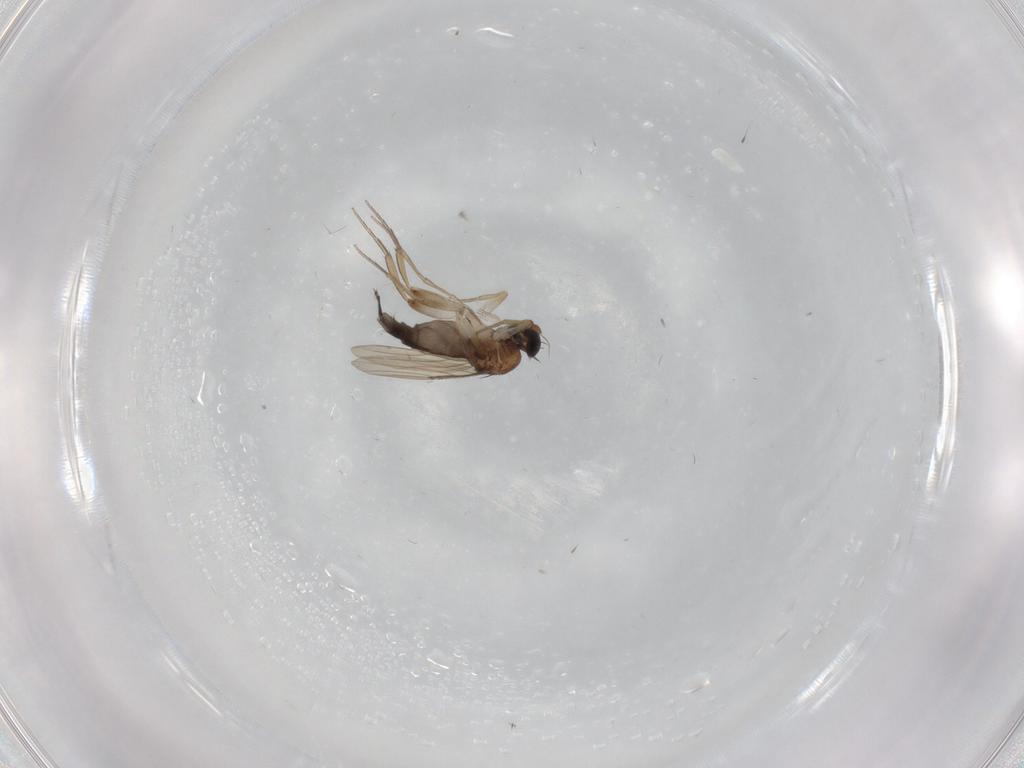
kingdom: Animalia
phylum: Arthropoda
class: Insecta
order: Diptera
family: Phoridae
